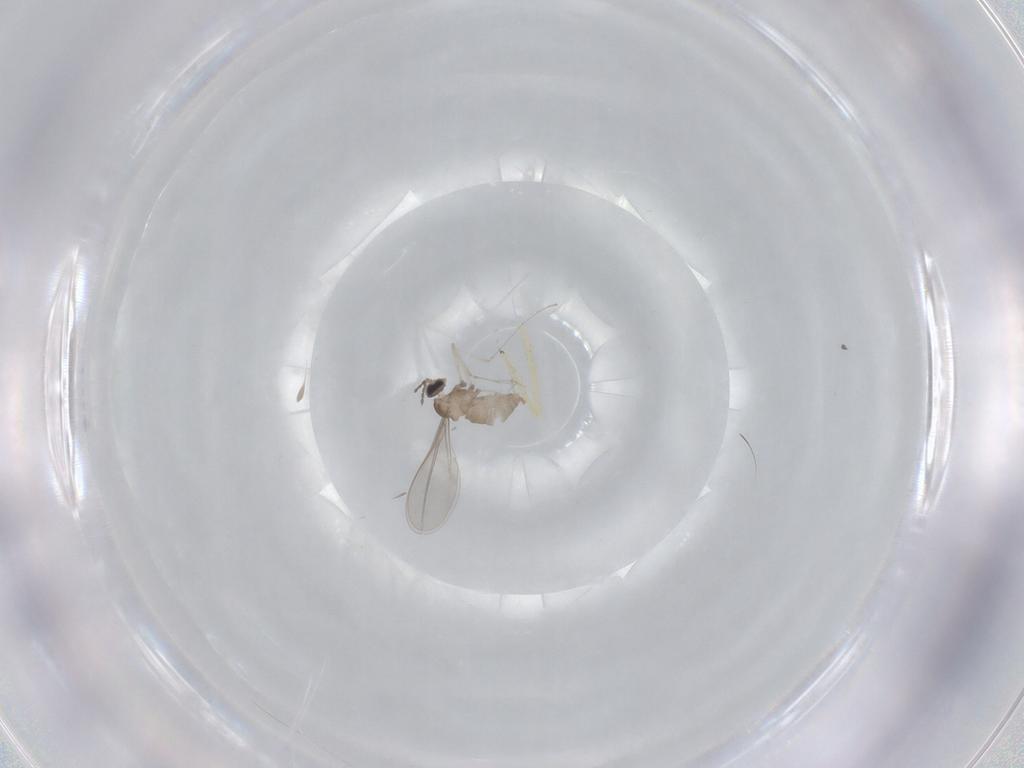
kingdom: Animalia
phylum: Arthropoda
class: Insecta
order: Diptera
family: Cecidomyiidae
